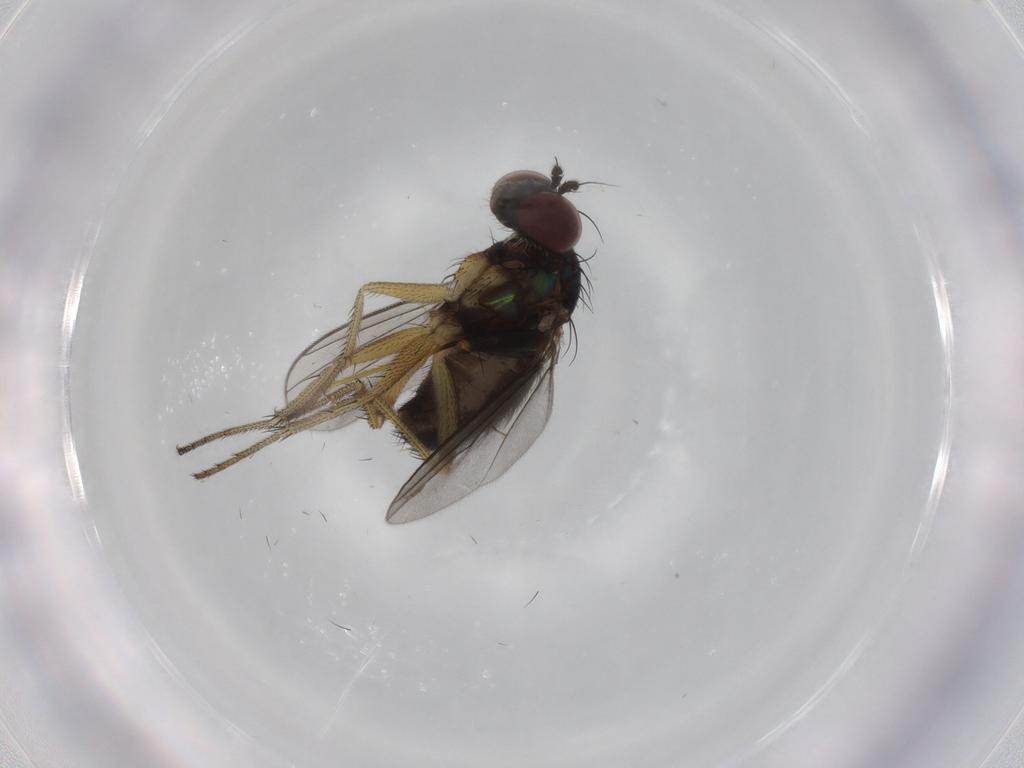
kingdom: Animalia
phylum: Arthropoda
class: Insecta
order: Diptera
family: Dolichopodidae
